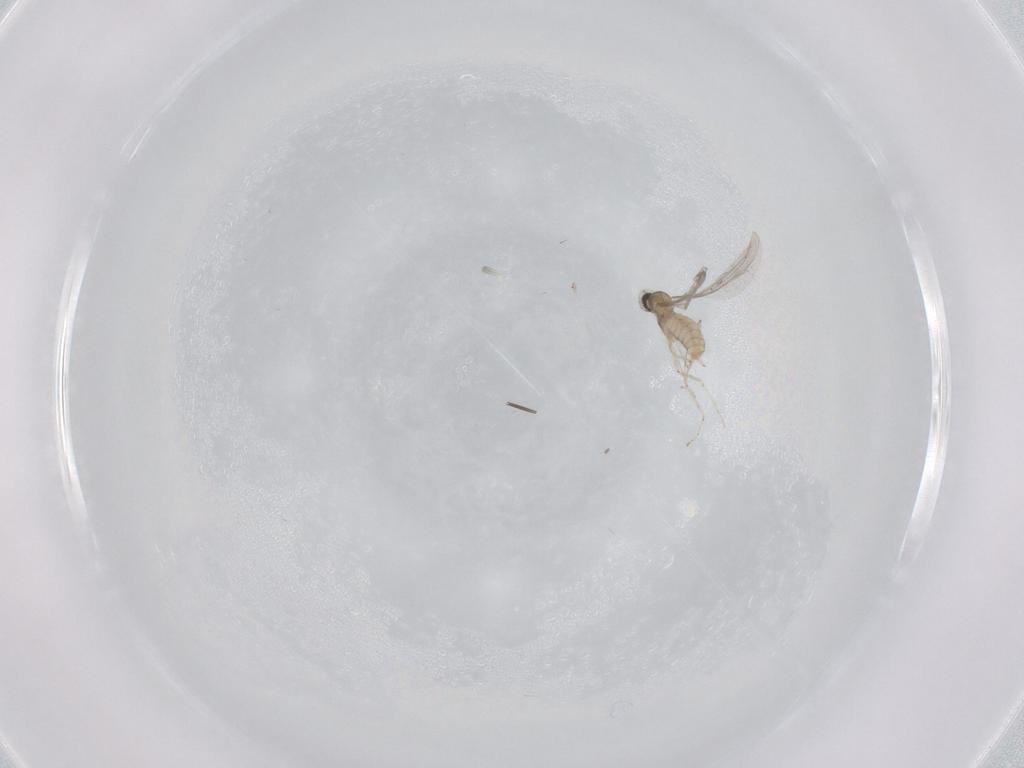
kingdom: Animalia
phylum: Arthropoda
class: Insecta
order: Diptera
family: Cecidomyiidae
